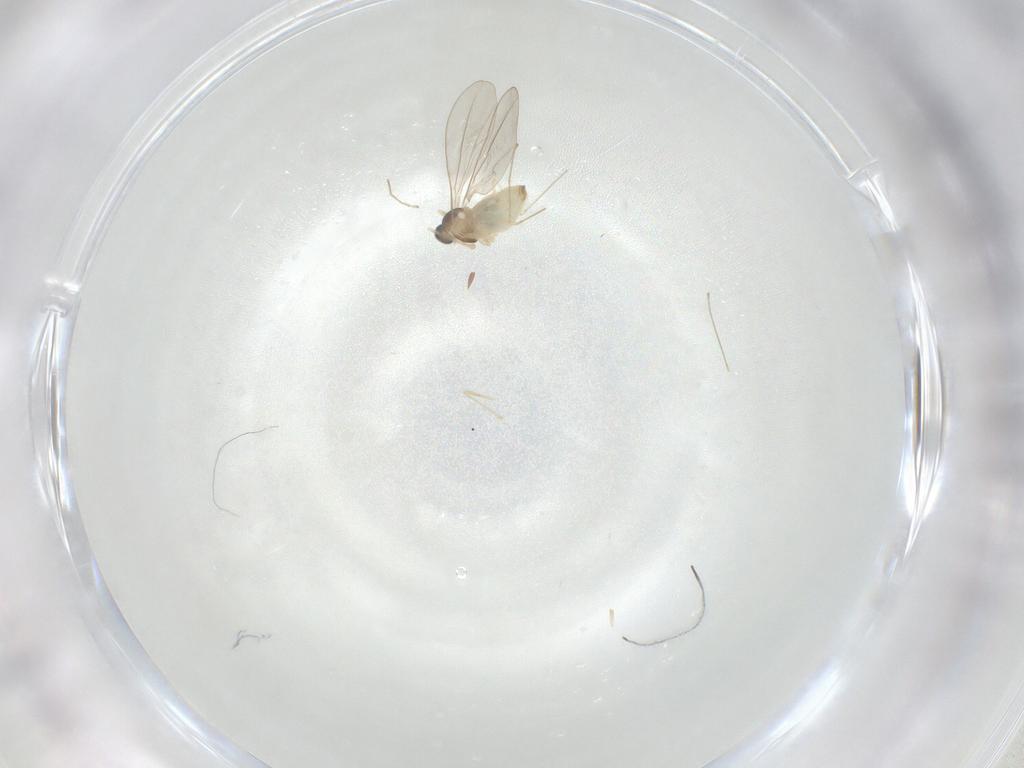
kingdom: Animalia
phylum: Arthropoda
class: Insecta
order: Diptera
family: Cecidomyiidae
